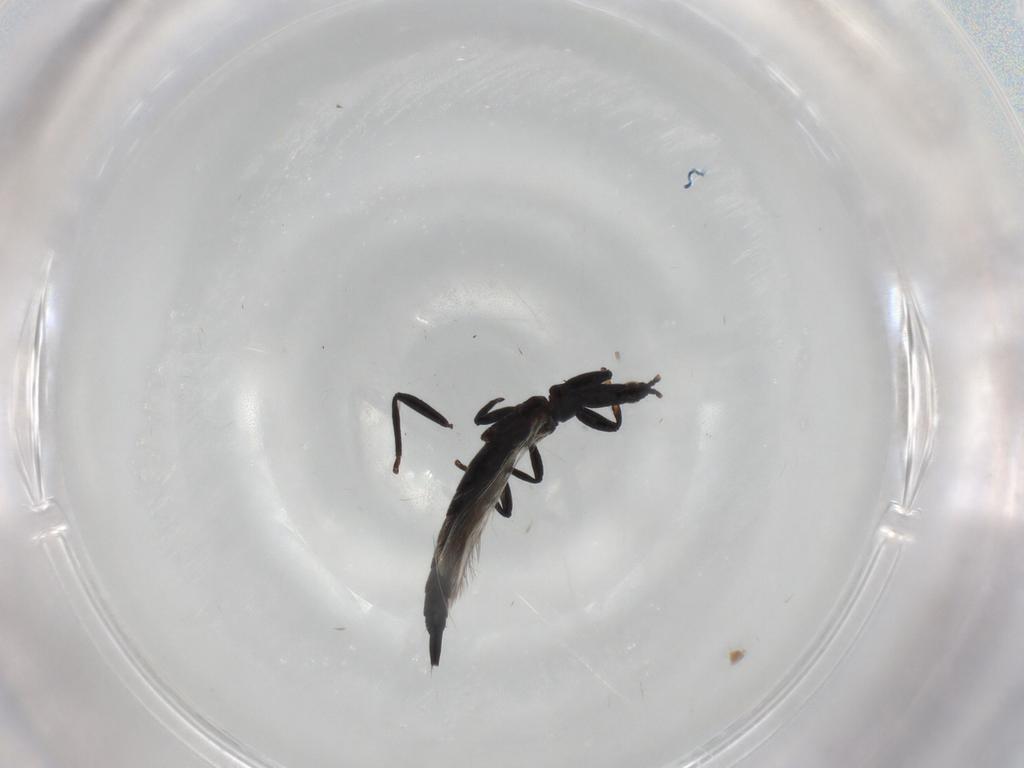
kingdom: Animalia
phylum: Arthropoda
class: Insecta
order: Thysanoptera
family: Phlaeothripidae
